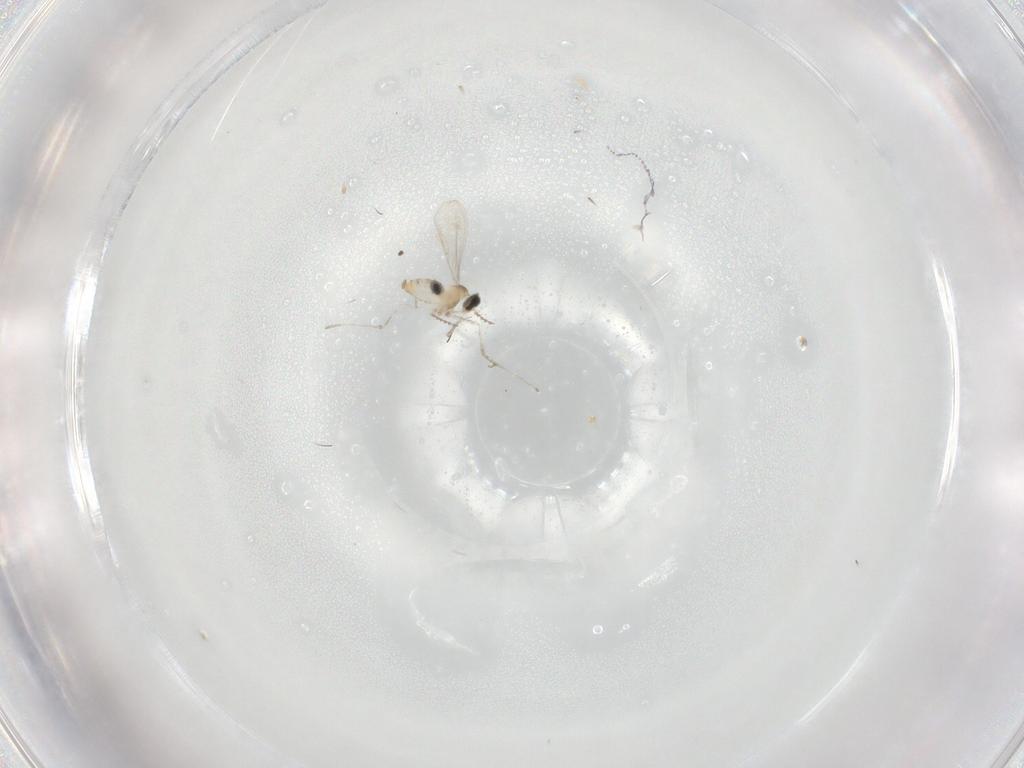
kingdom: Animalia
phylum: Arthropoda
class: Insecta
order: Diptera
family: Cecidomyiidae
